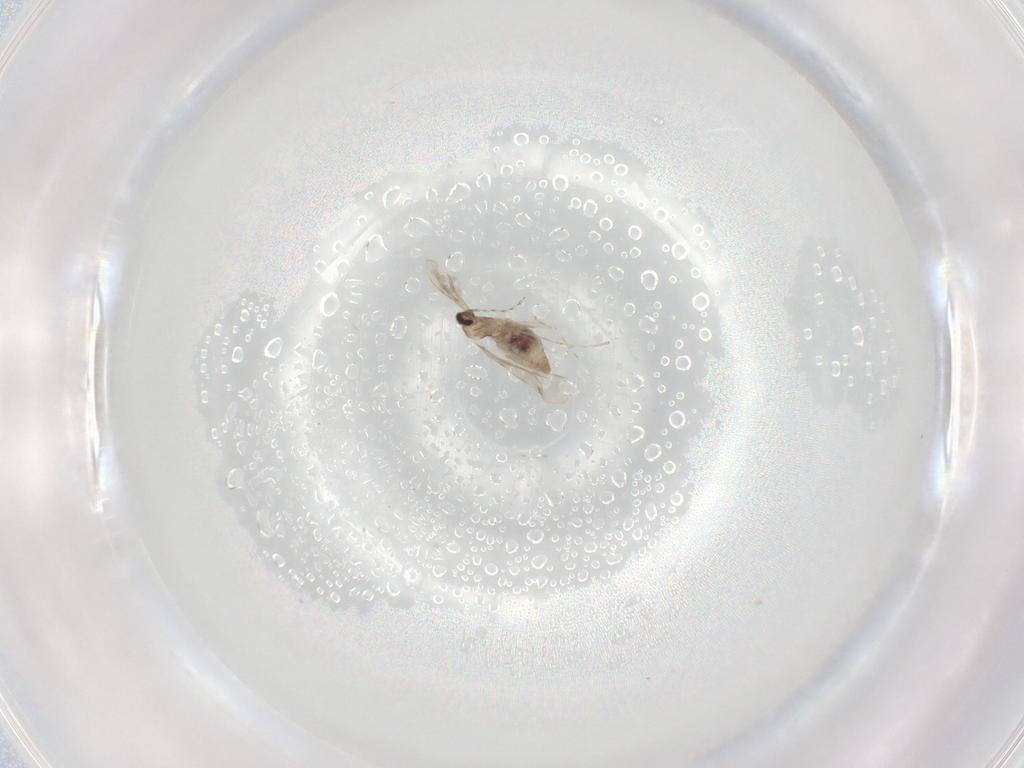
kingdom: Animalia
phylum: Arthropoda
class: Insecta
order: Diptera
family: Cecidomyiidae
